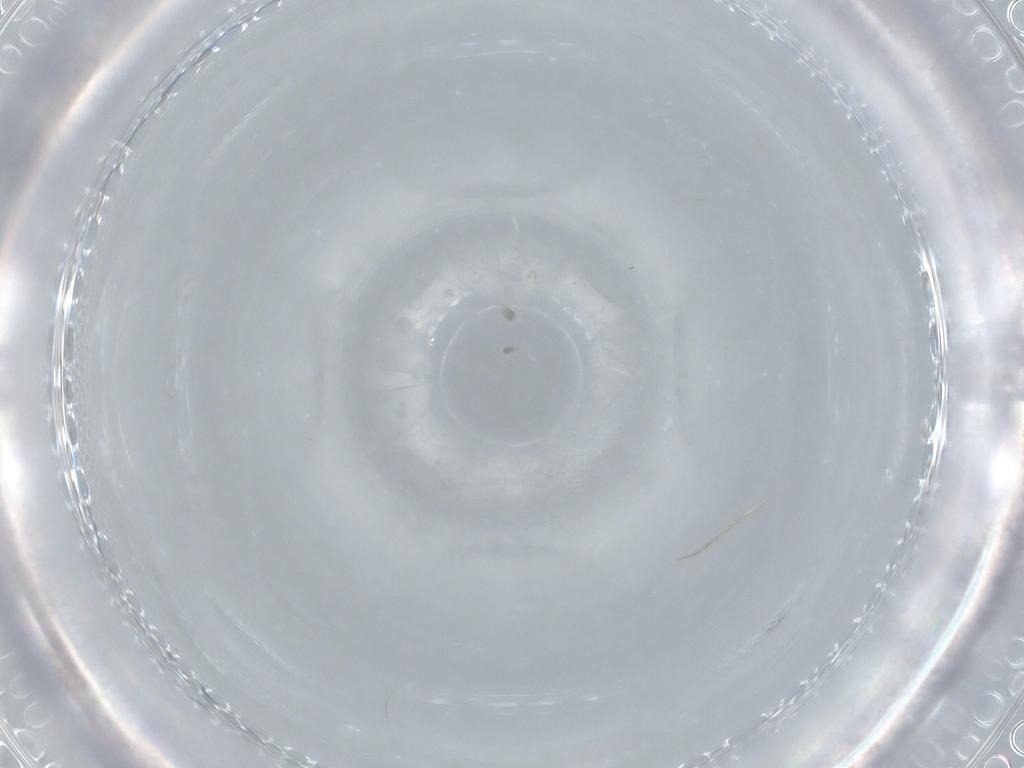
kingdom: Animalia
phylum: Arthropoda
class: Insecta
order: Diptera
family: Cecidomyiidae
